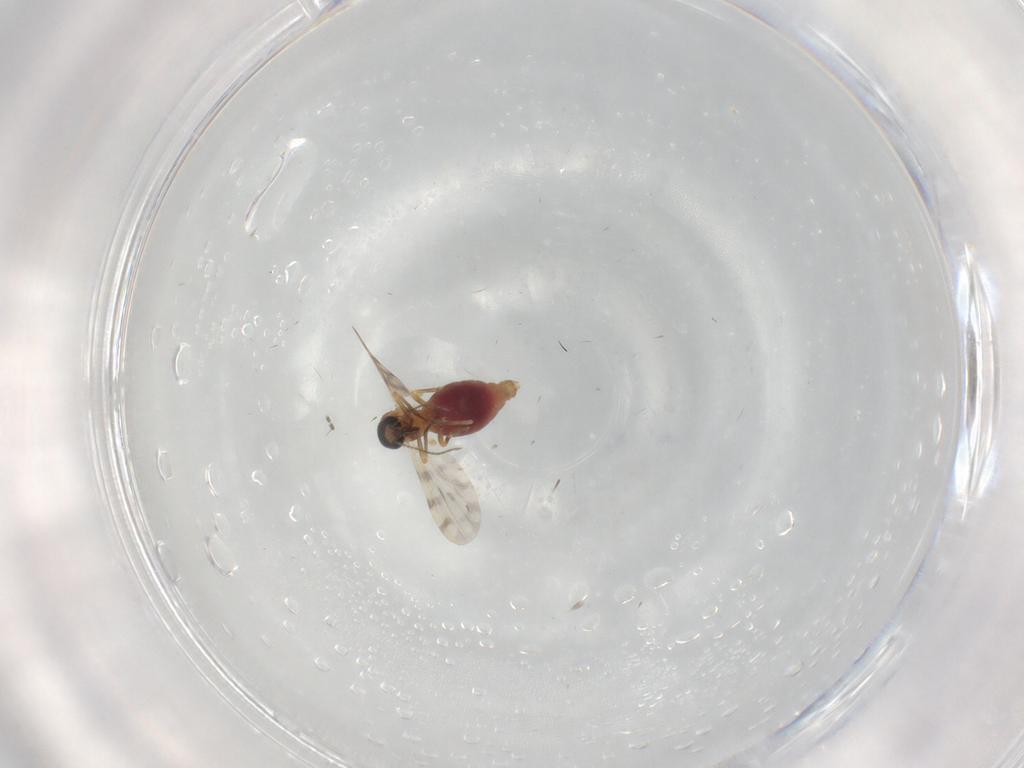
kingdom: Animalia
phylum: Arthropoda
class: Insecta
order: Diptera
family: Ceratopogonidae
